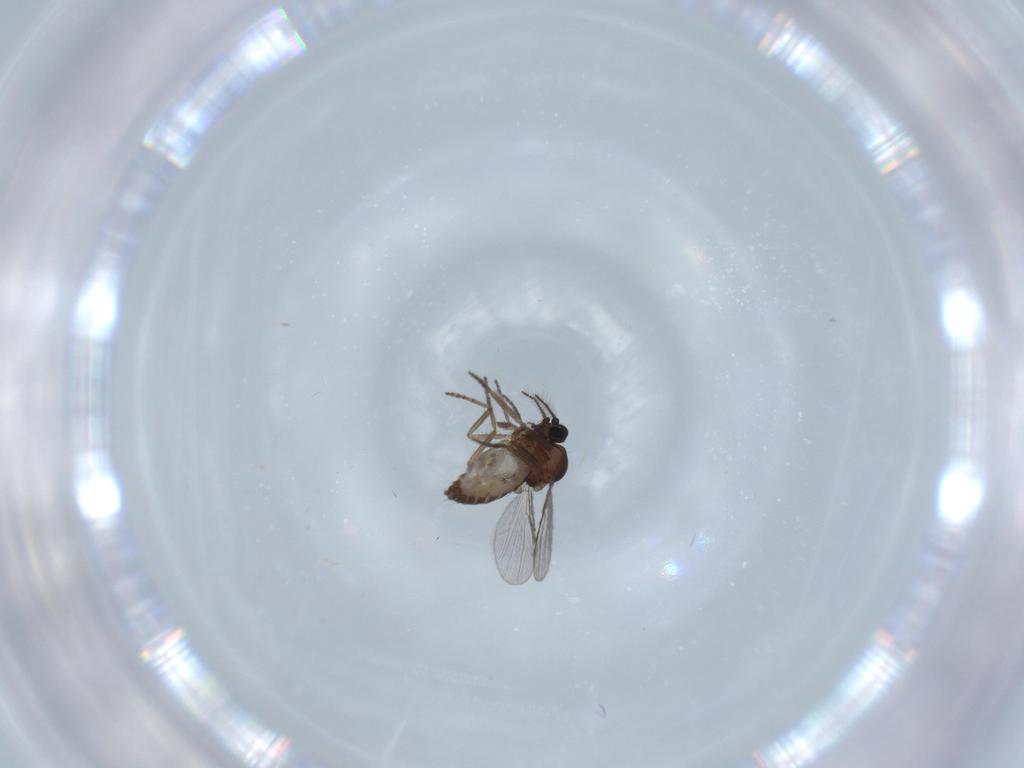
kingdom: Animalia
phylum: Arthropoda
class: Insecta
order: Diptera
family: Chironomidae
